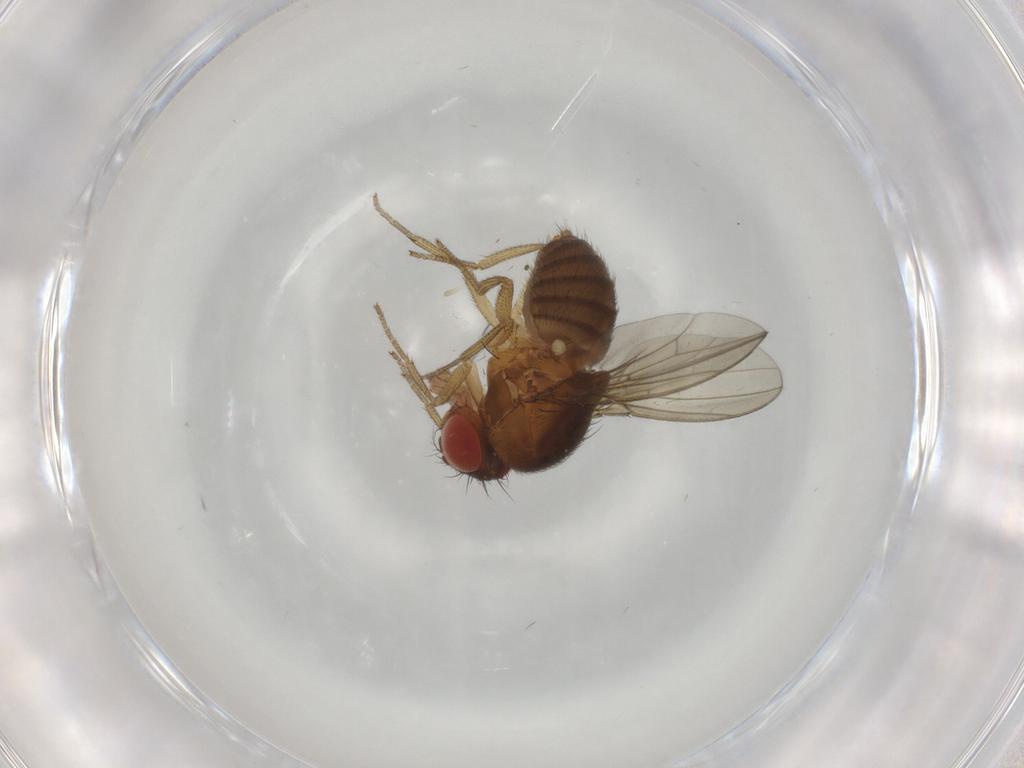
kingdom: Animalia
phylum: Arthropoda
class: Insecta
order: Diptera
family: Drosophilidae
